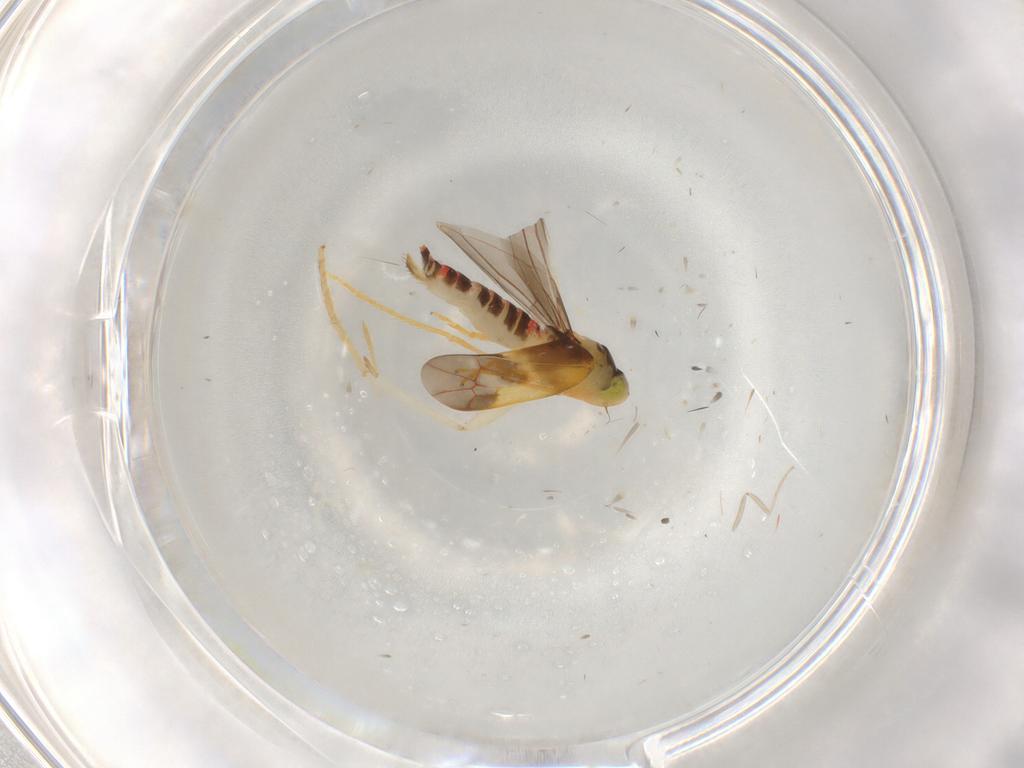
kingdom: Animalia
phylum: Arthropoda
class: Insecta
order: Hemiptera
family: Cicadellidae
